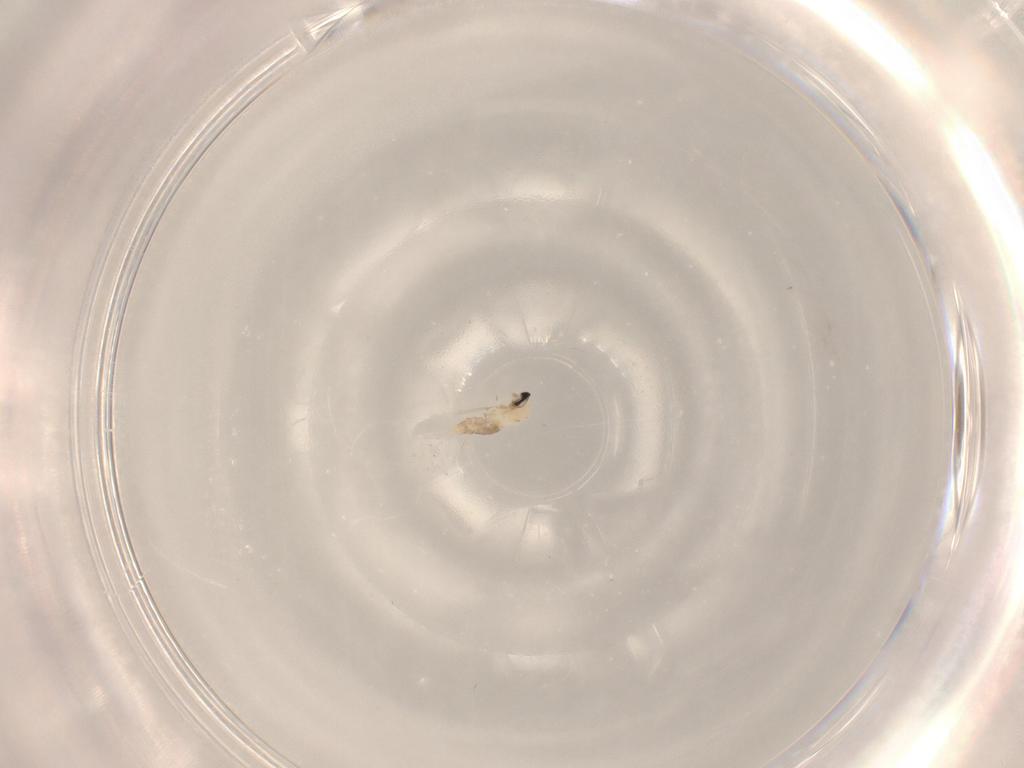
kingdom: Animalia
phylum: Arthropoda
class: Insecta
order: Diptera
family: Cecidomyiidae
